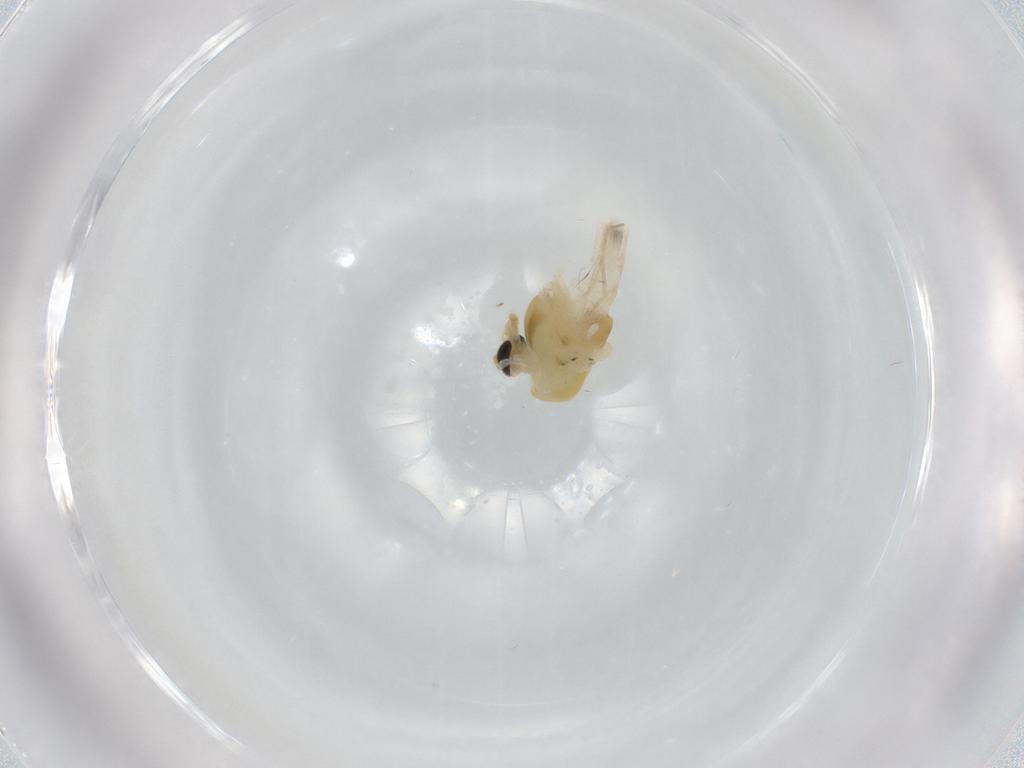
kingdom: Animalia
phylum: Arthropoda
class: Insecta
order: Diptera
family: Chironomidae
